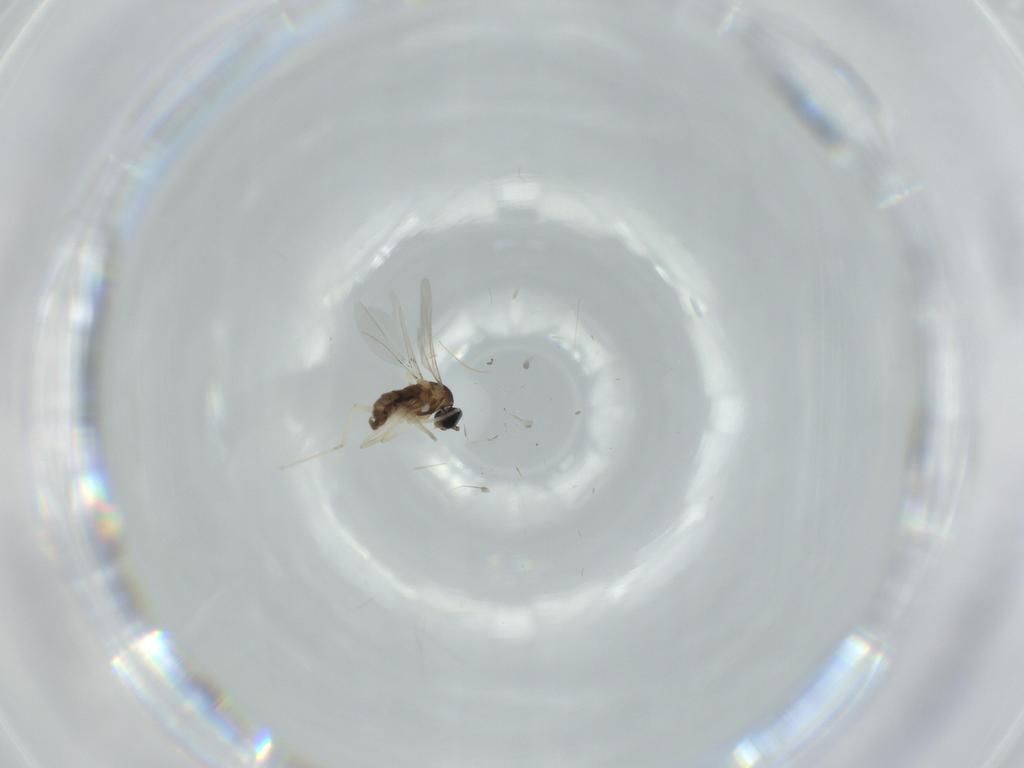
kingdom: Animalia
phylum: Arthropoda
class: Insecta
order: Diptera
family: Cecidomyiidae
